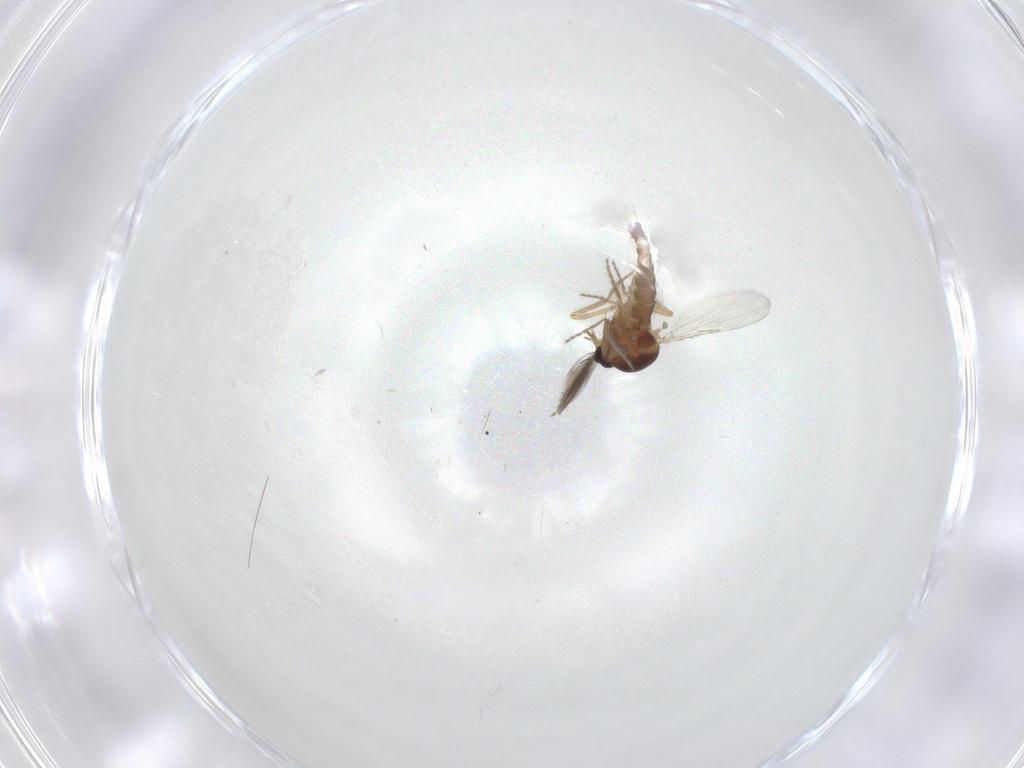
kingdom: Animalia
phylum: Arthropoda
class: Insecta
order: Diptera
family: Ceratopogonidae
